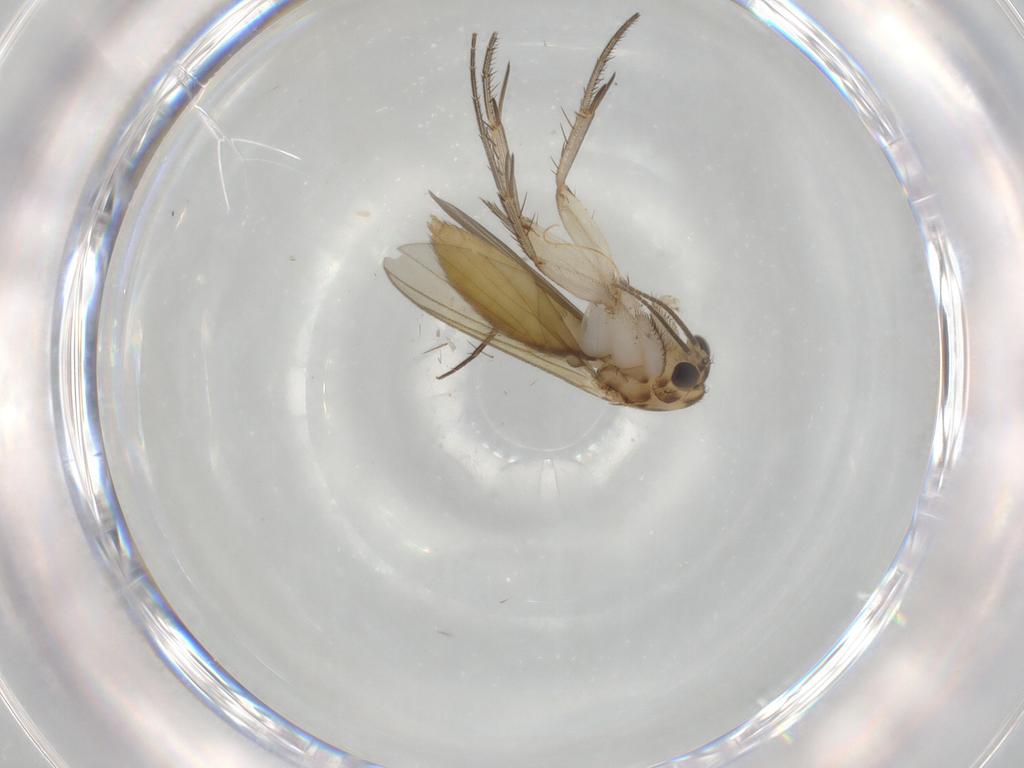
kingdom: Animalia
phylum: Arthropoda
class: Insecta
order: Diptera
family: Mycetophilidae
